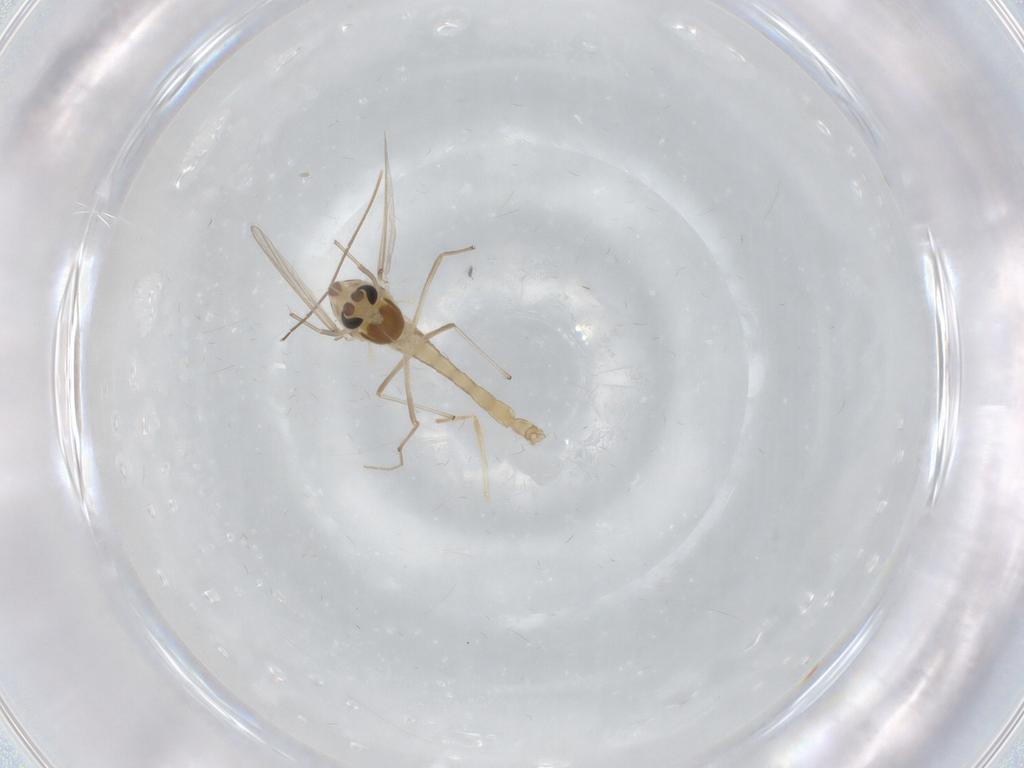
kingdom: Animalia
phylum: Arthropoda
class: Insecta
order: Diptera
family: Chironomidae
